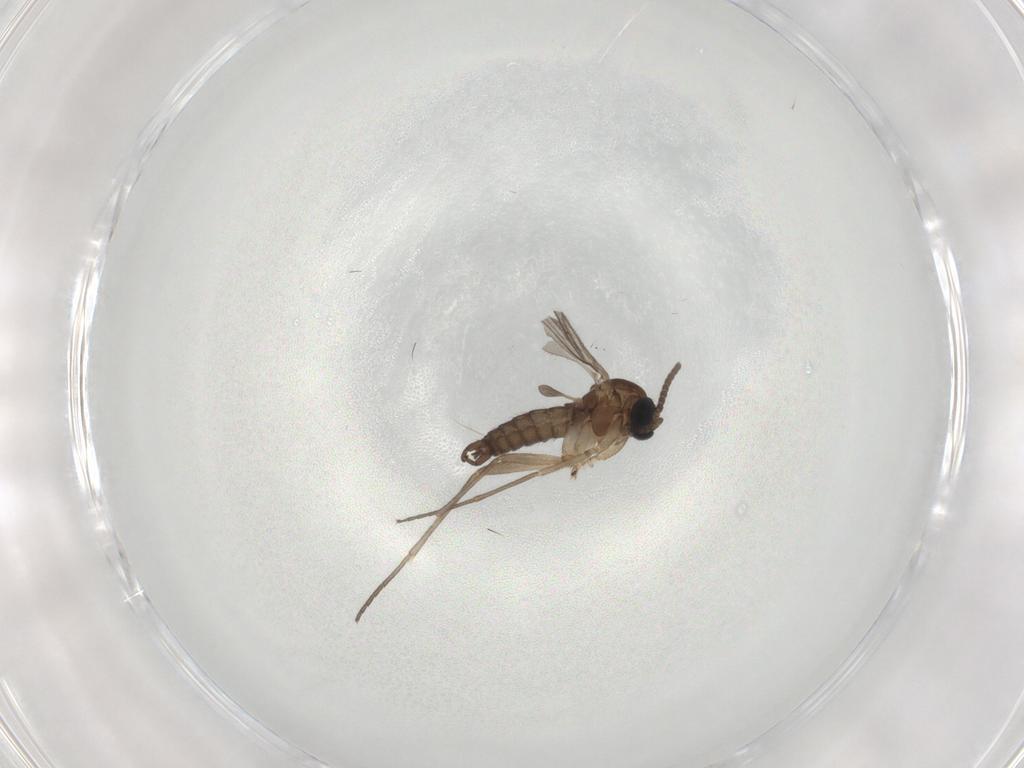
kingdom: Animalia
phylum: Arthropoda
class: Insecta
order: Diptera
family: Sciaridae
